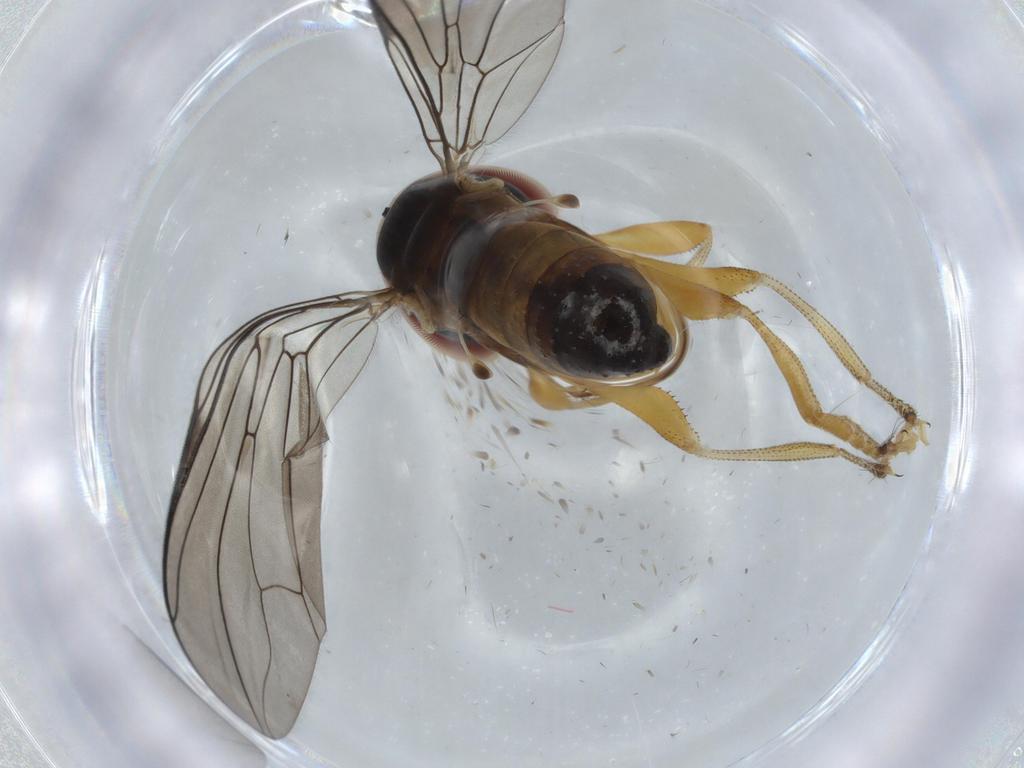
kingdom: Animalia
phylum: Arthropoda
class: Insecta
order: Diptera
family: Pipunculidae
